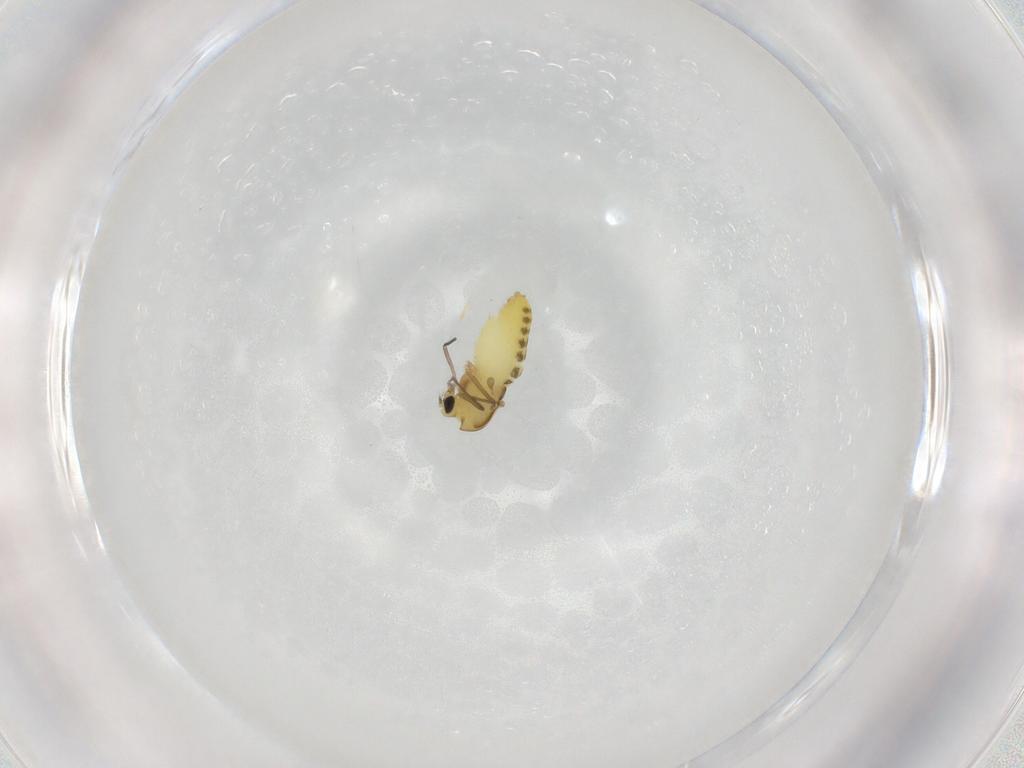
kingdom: Animalia
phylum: Arthropoda
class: Insecta
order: Diptera
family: Chironomidae
